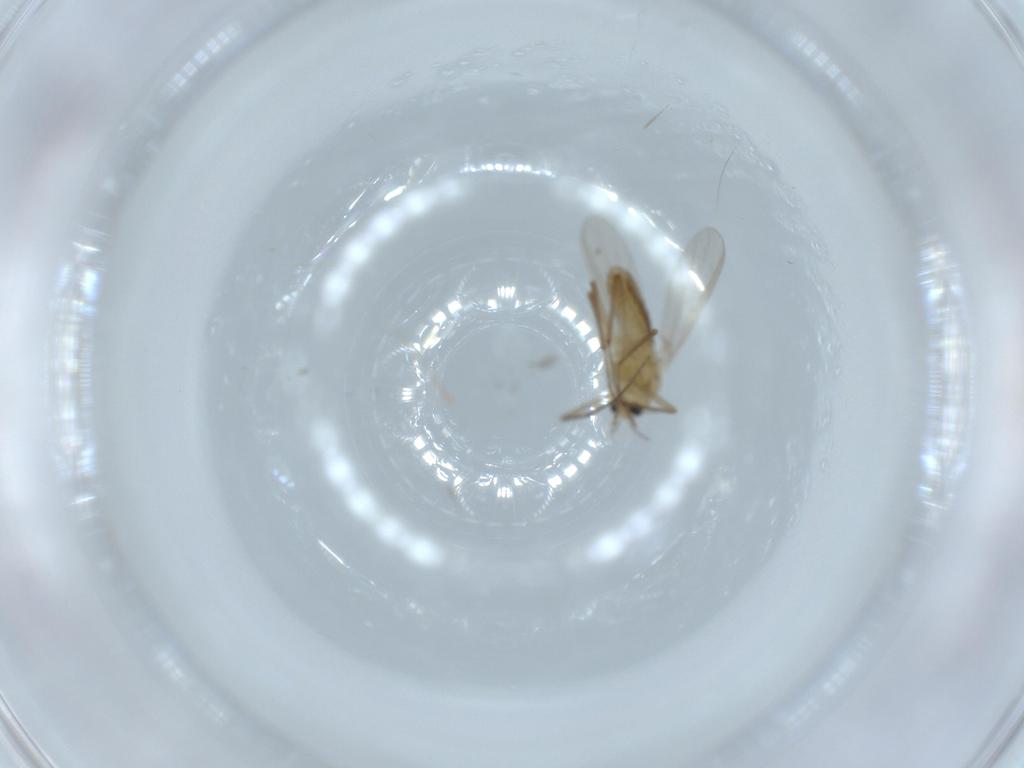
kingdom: Animalia
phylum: Arthropoda
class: Insecta
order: Diptera
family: Chironomidae
